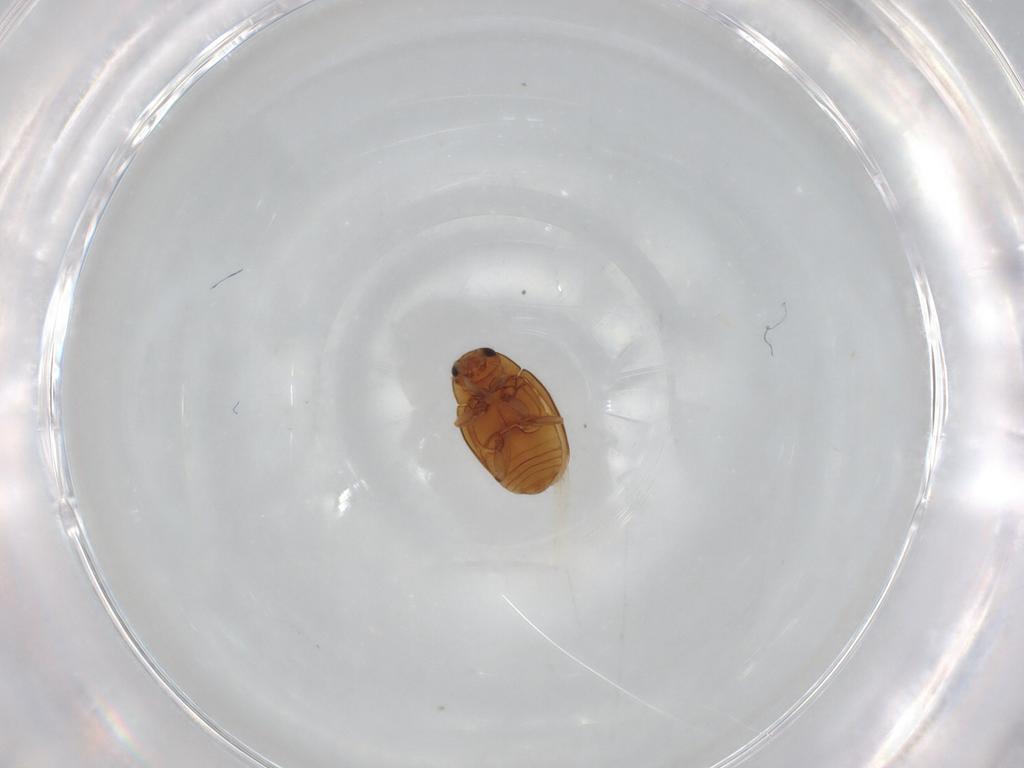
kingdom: Animalia
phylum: Arthropoda
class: Insecta
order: Coleoptera
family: Coccinellidae
